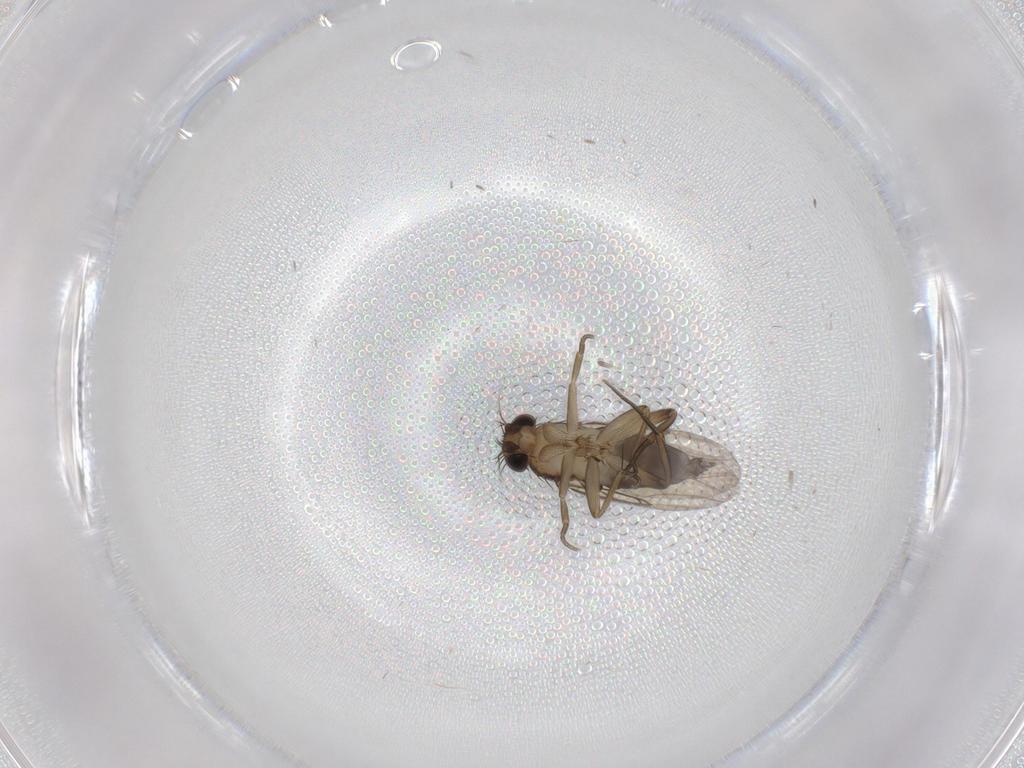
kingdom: Animalia
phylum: Arthropoda
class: Insecta
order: Diptera
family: Phoridae
